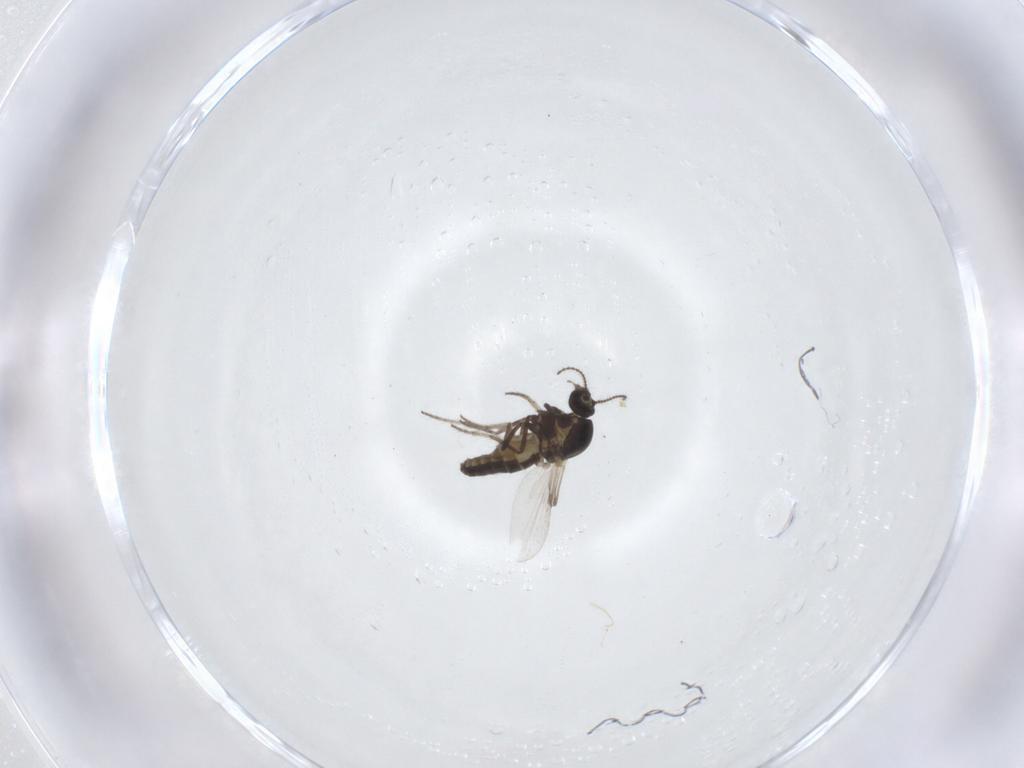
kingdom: Animalia
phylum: Arthropoda
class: Insecta
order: Diptera
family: Ceratopogonidae
